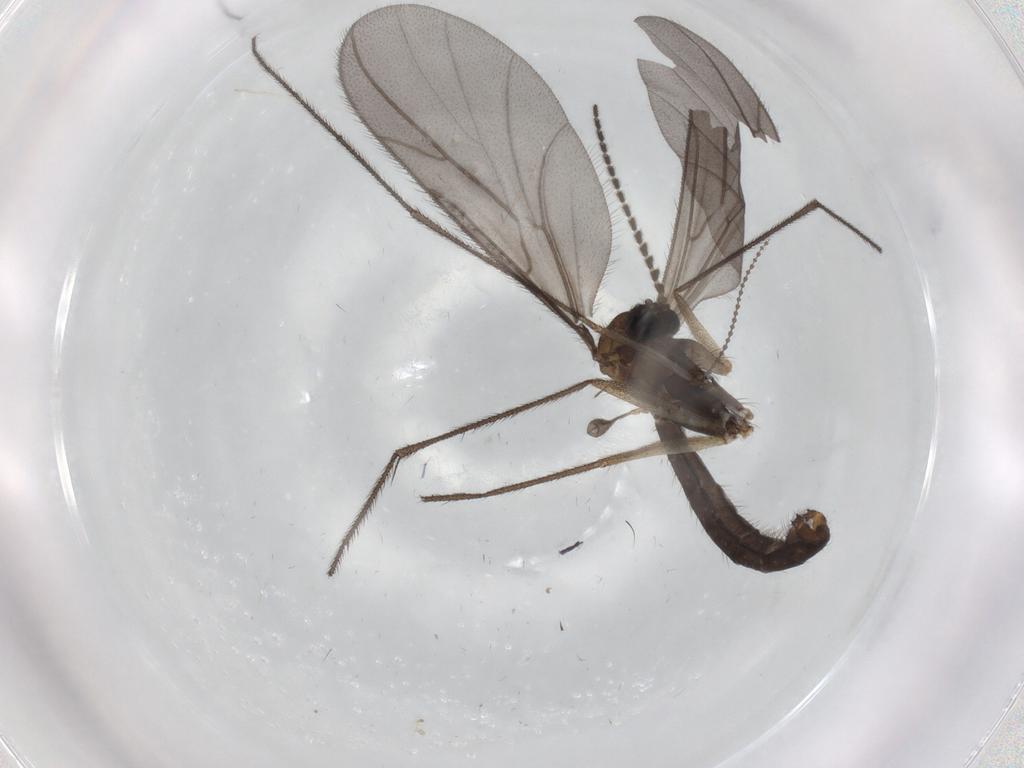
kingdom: Animalia
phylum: Arthropoda
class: Insecta
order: Diptera
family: Ditomyiidae
